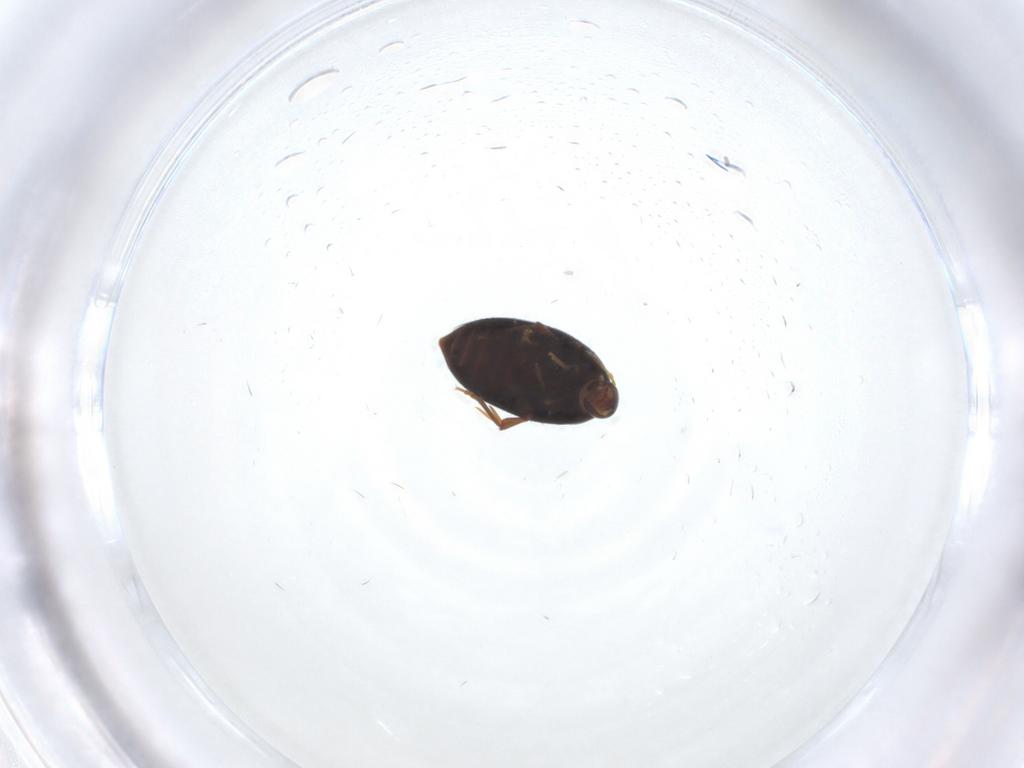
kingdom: Animalia
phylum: Arthropoda
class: Insecta
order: Coleoptera
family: Melandryidae
